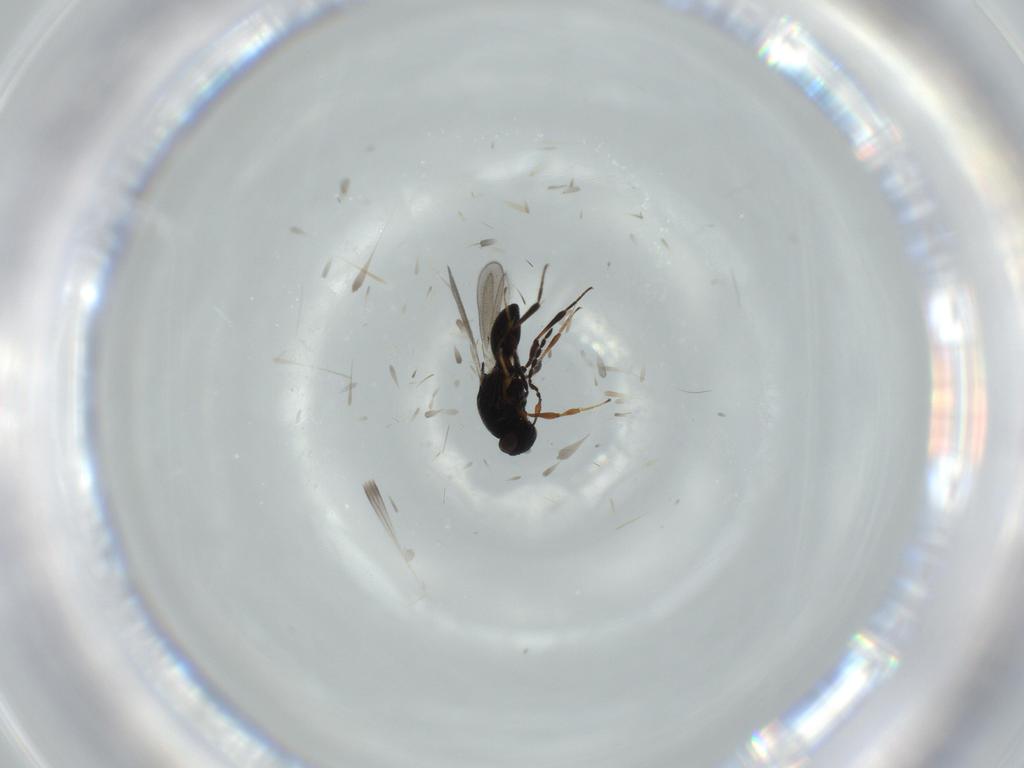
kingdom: Animalia
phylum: Arthropoda
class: Insecta
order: Hymenoptera
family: Platygastridae
